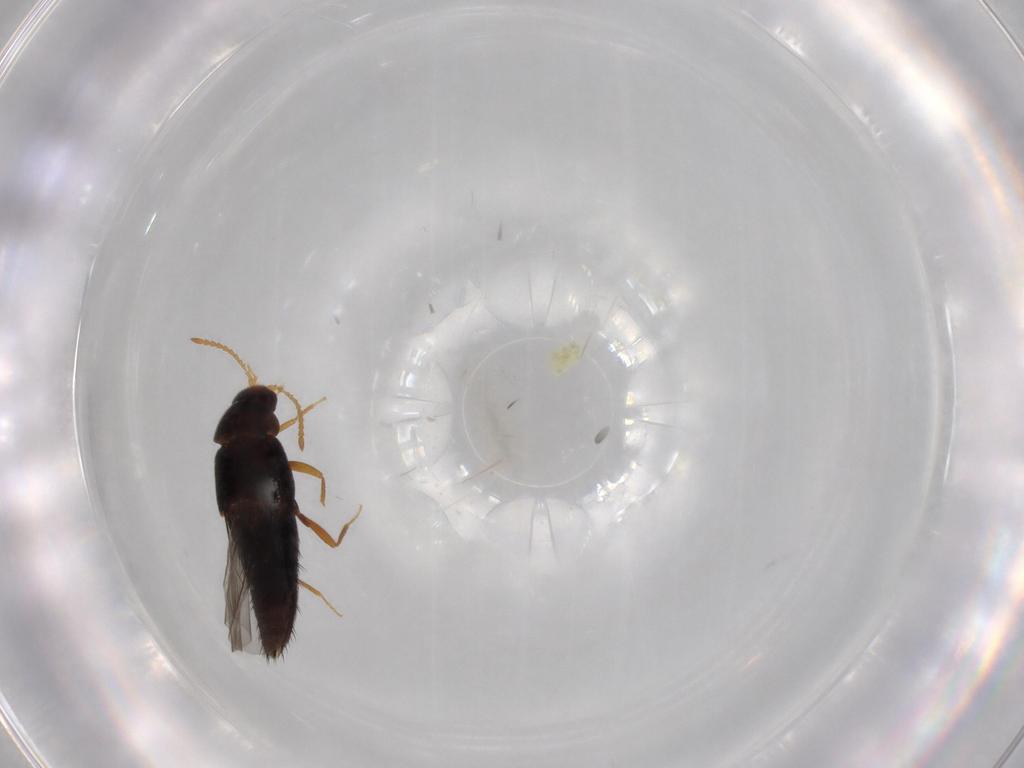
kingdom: Animalia
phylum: Arthropoda
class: Insecta
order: Coleoptera
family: Staphylinidae
